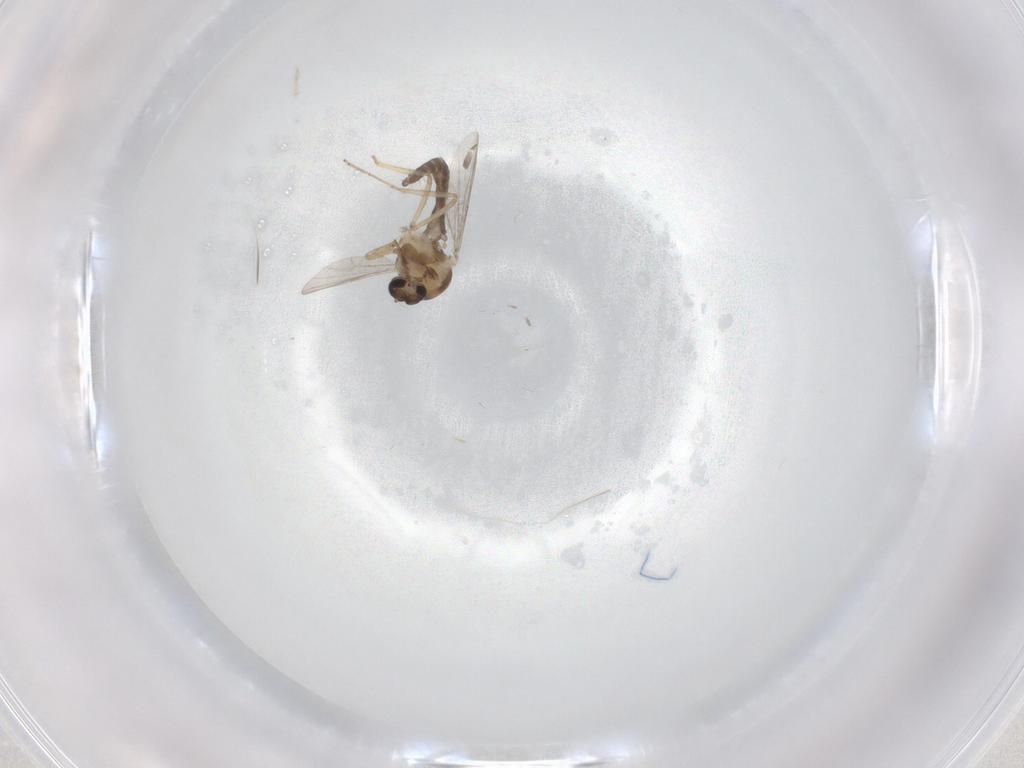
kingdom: Animalia
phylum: Arthropoda
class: Insecta
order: Diptera
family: Ceratopogonidae
